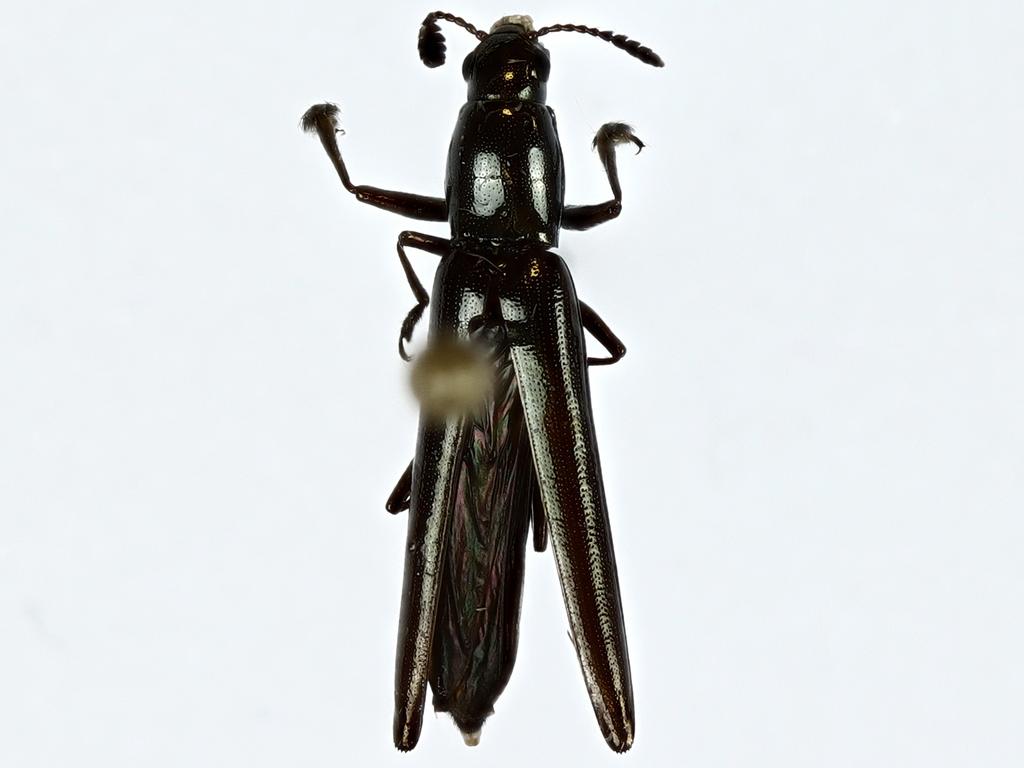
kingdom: Animalia
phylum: Arthropoda
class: Insecta
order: Coleoptera
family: Erotylidae
